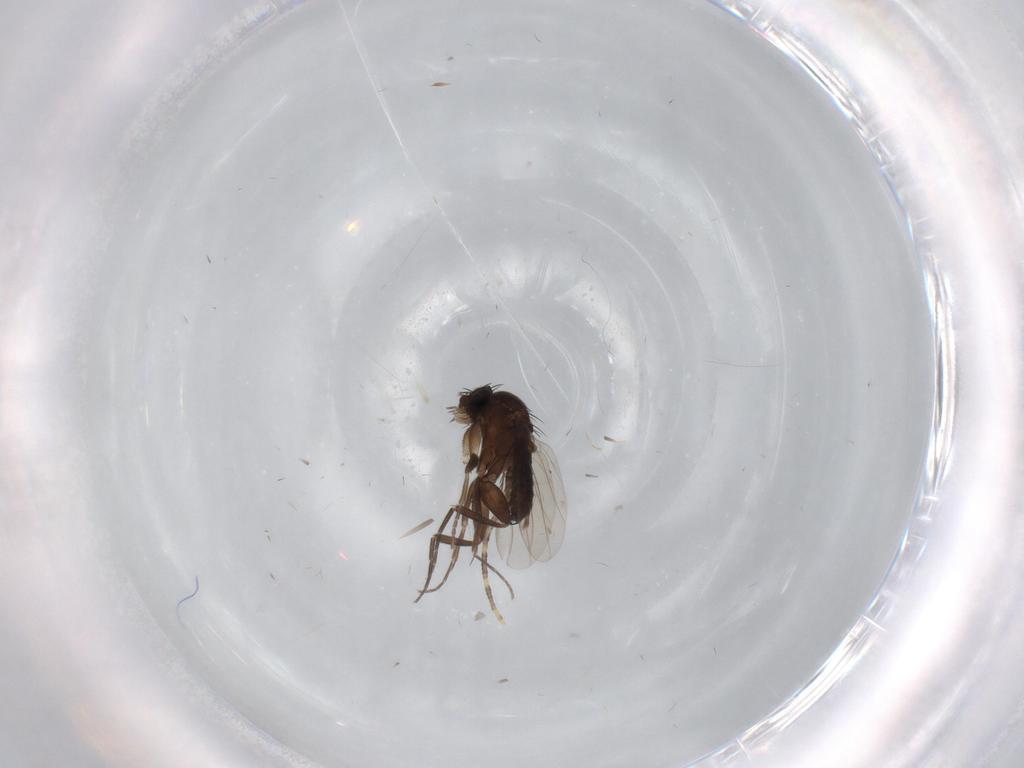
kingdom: Animalia
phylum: Arthropoda
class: Insecta
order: Diptera
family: Phoridae
